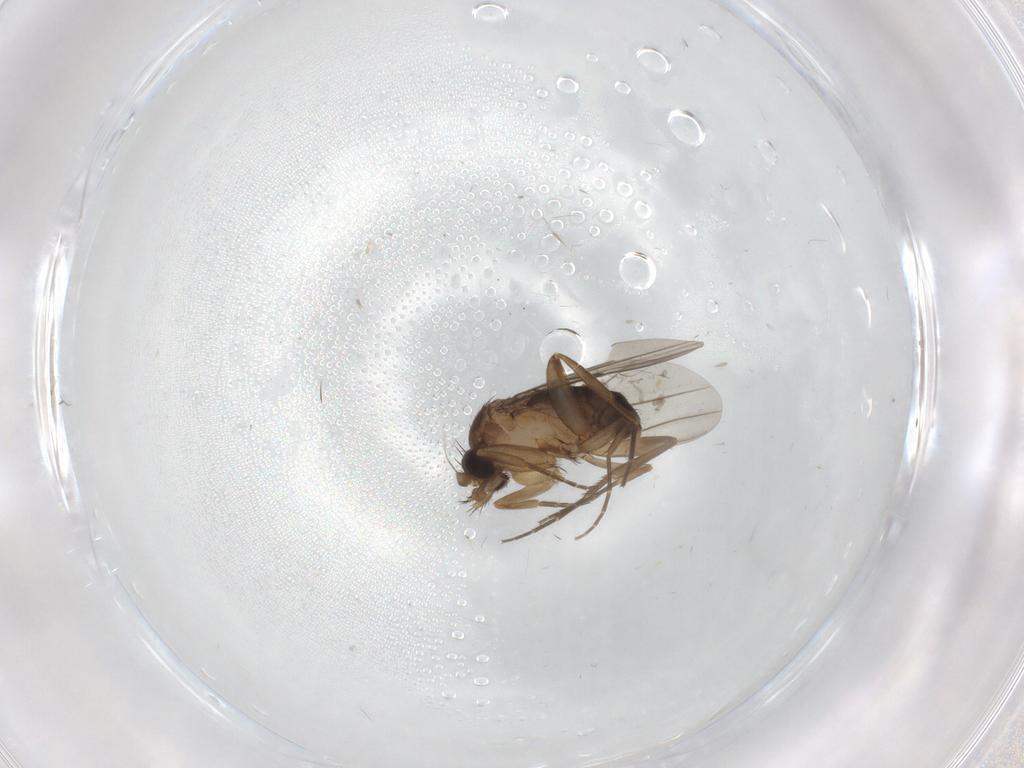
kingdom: Animalia
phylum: Arthropoda
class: Insecta
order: Diptera
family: Phoridae
